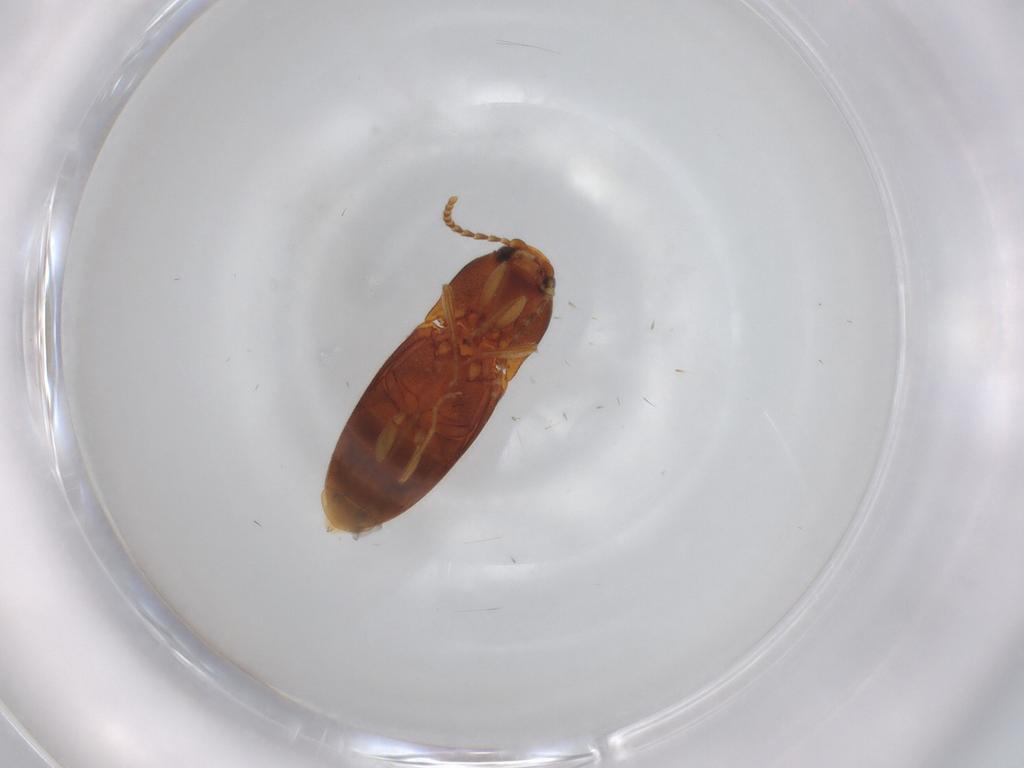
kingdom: Animalia
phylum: Arthropoda
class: Insecta
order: Coleoptera
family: Elateridae
